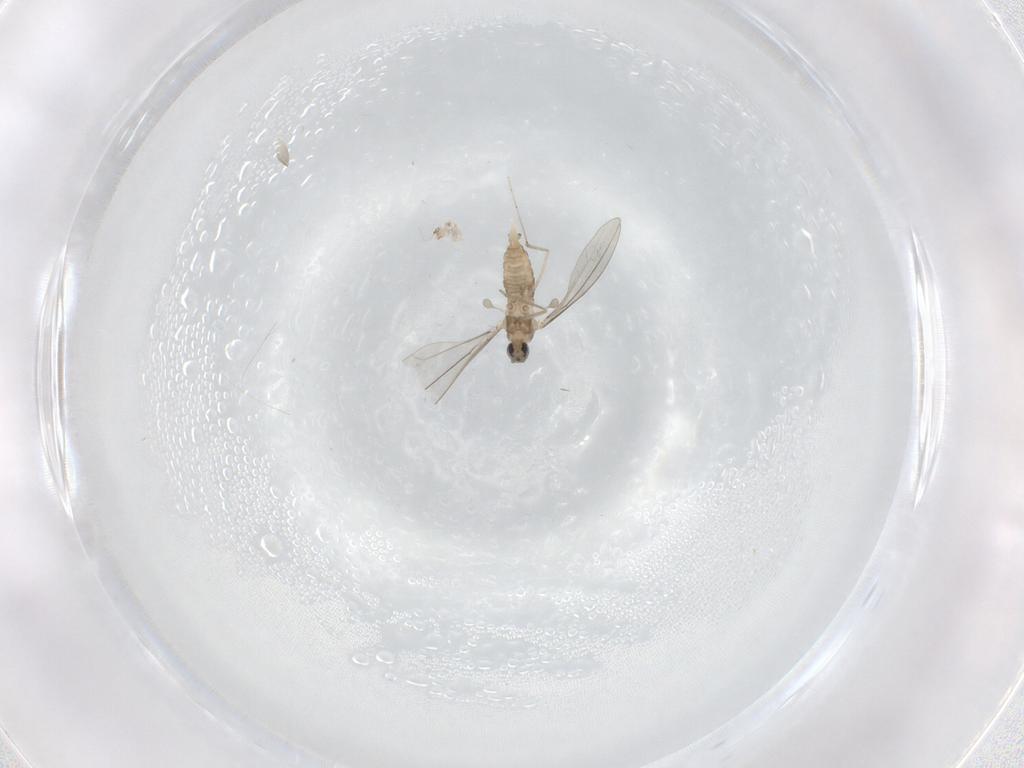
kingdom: Animalia
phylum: Arthropoda
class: Insecta
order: Diptera
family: Cecidomyiidae
